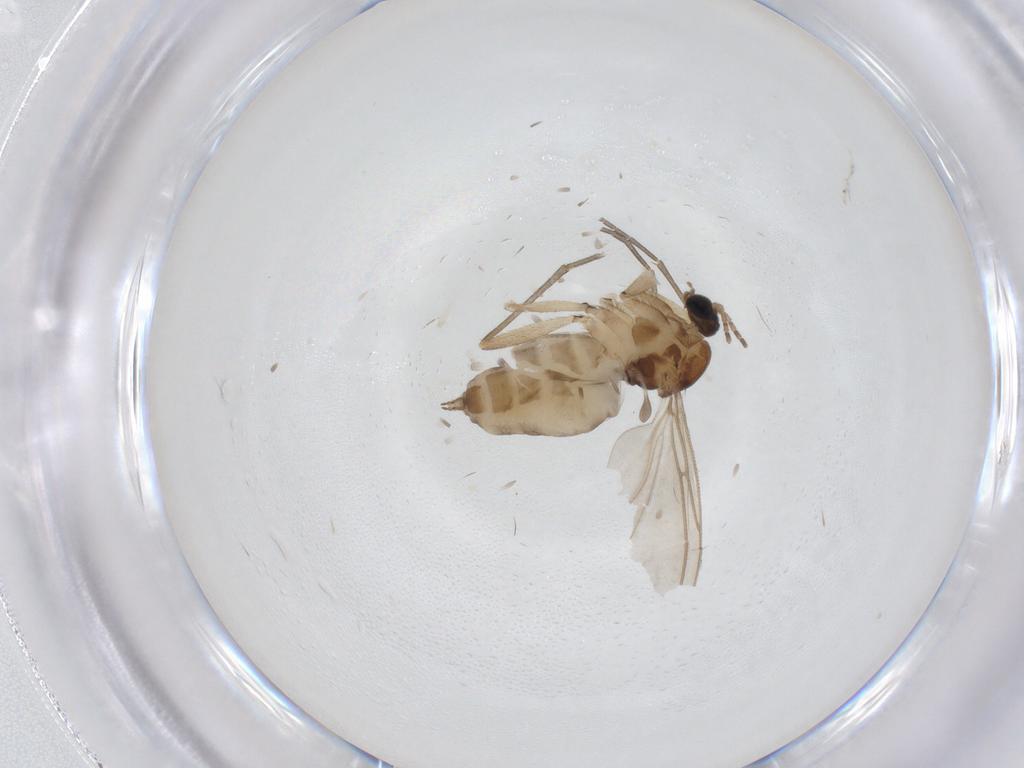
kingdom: Animalia
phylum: Arthropoda
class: Insecta
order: Diptera
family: Sciaridae
